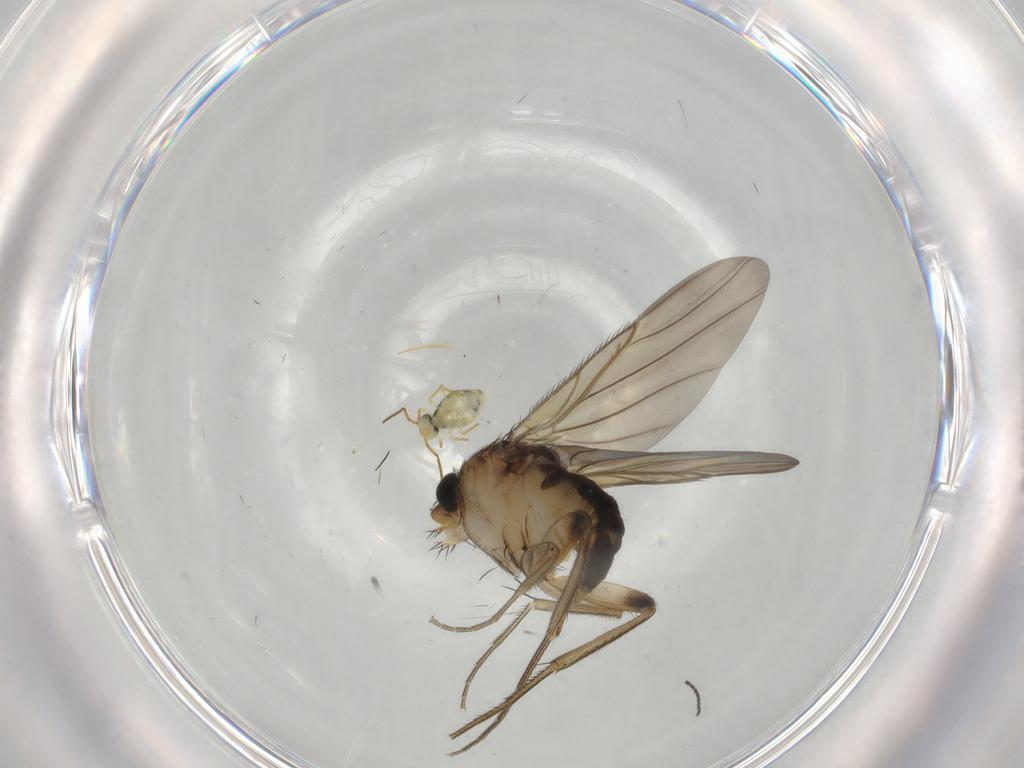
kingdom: Animalia
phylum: Arthropoda
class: Insecta
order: Diptera
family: Phoridae
